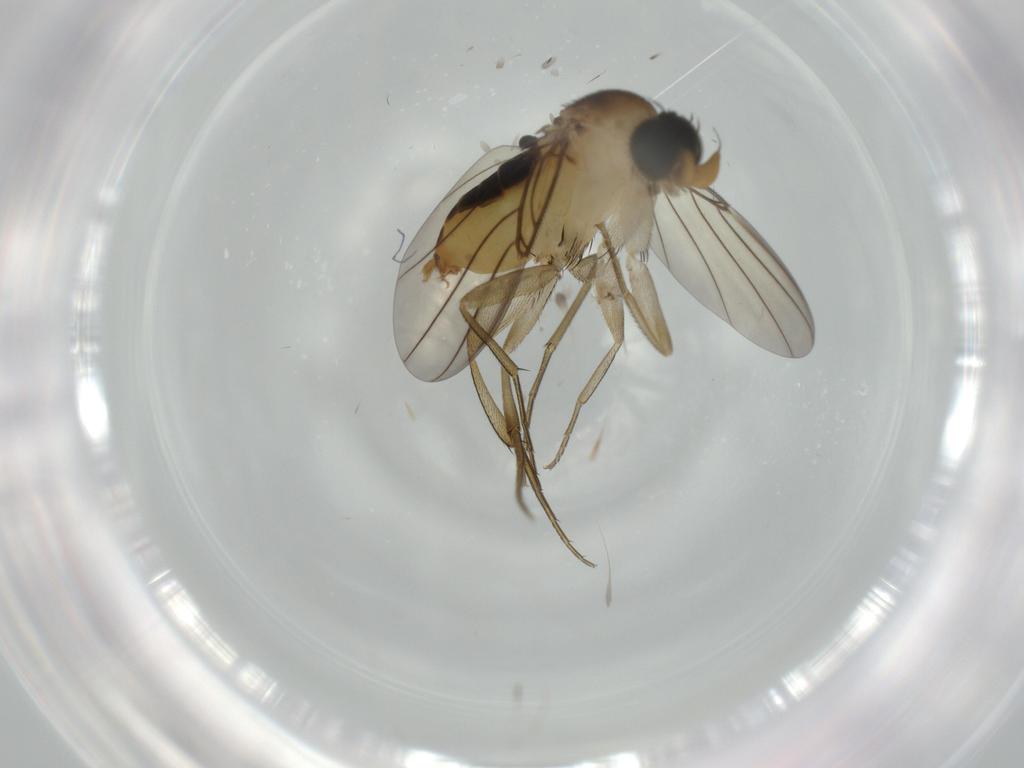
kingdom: Animalia
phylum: Arthropoda
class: Insecta
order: Diptera
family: Phoridae
